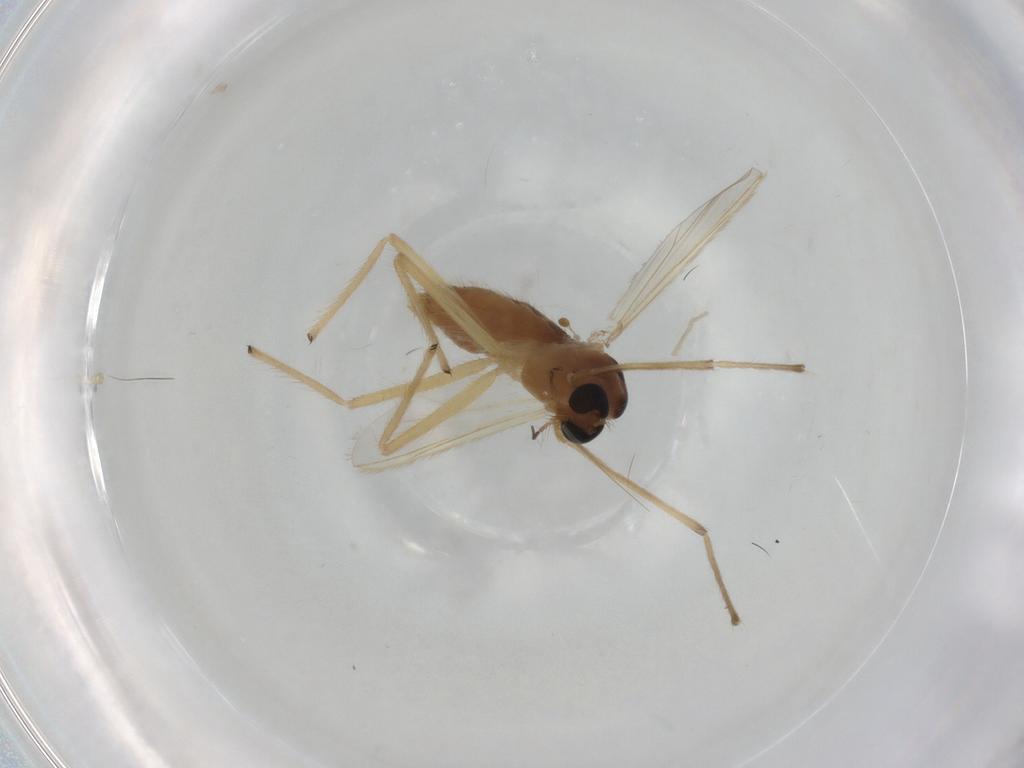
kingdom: Animalia
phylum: Arthropoda
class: Insecta
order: Diptera
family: Chironomidae
